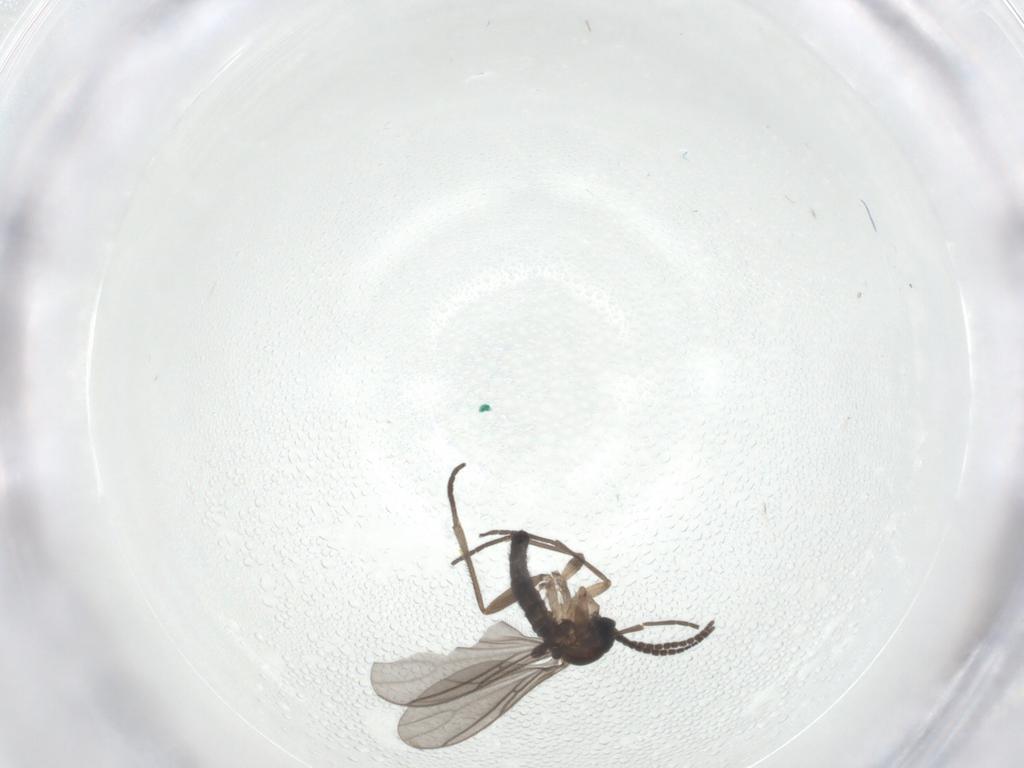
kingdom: Animalia
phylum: Arthropoda
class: Insecta
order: Diptera
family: Sciaridae
